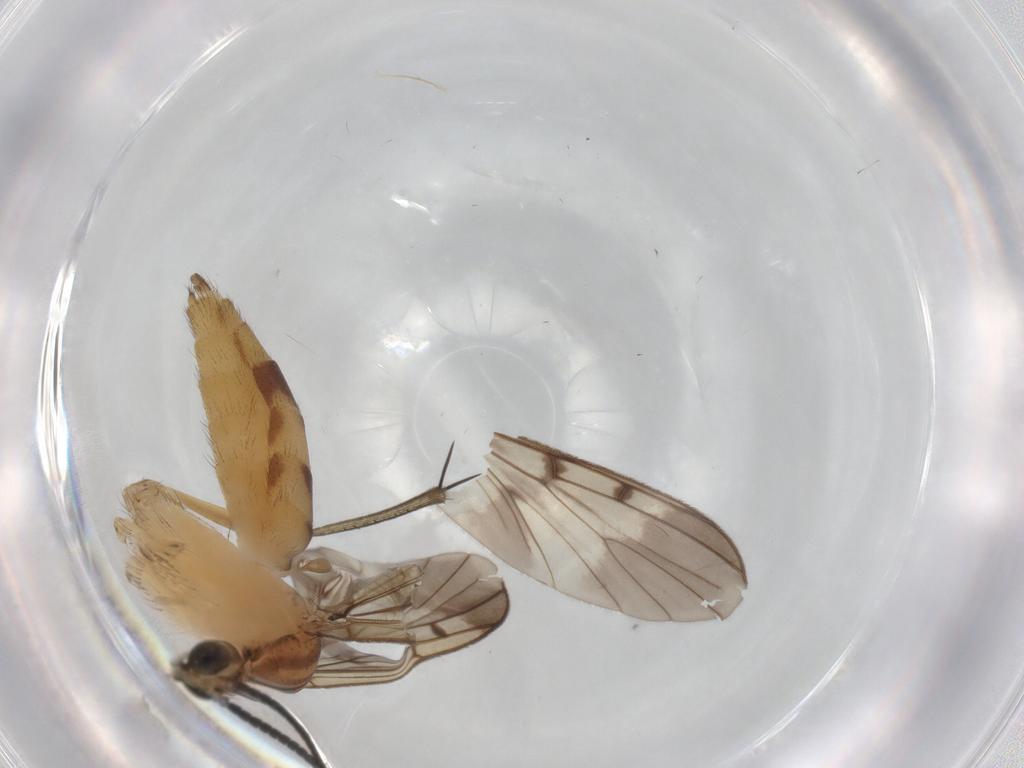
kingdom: Animalia
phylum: Arthropoda
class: Insecta
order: Diptera
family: Mycetophilidae
